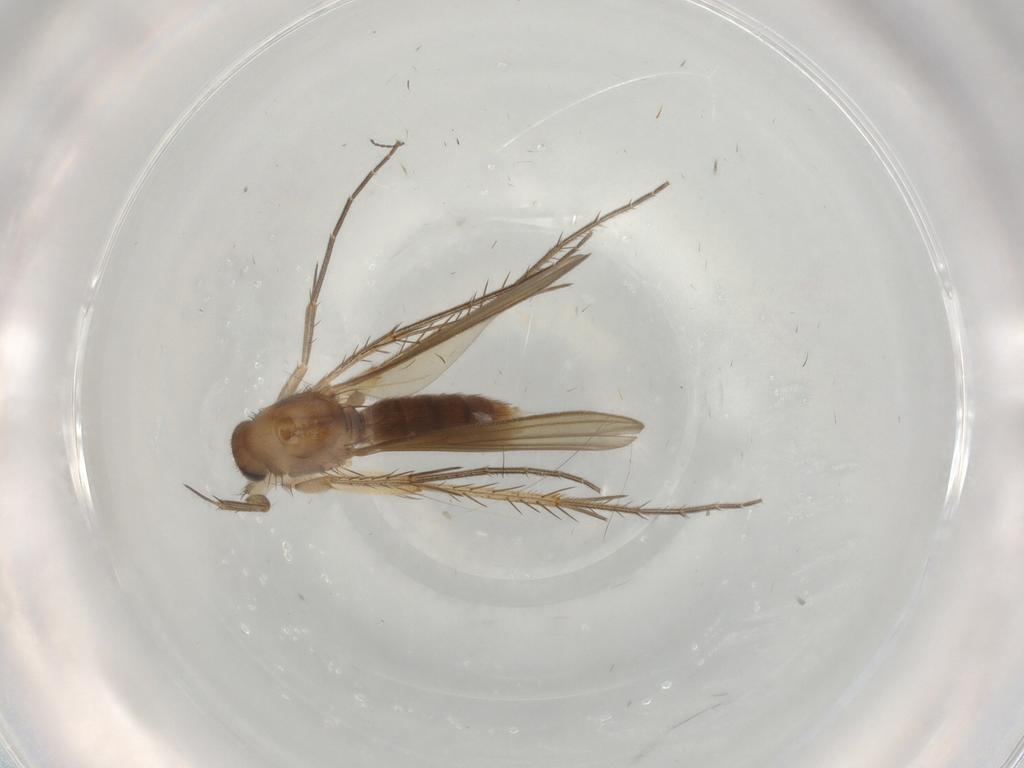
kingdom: Animalia
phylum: Arthropoda
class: Insecta
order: Diptera
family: Mycetophilidae
